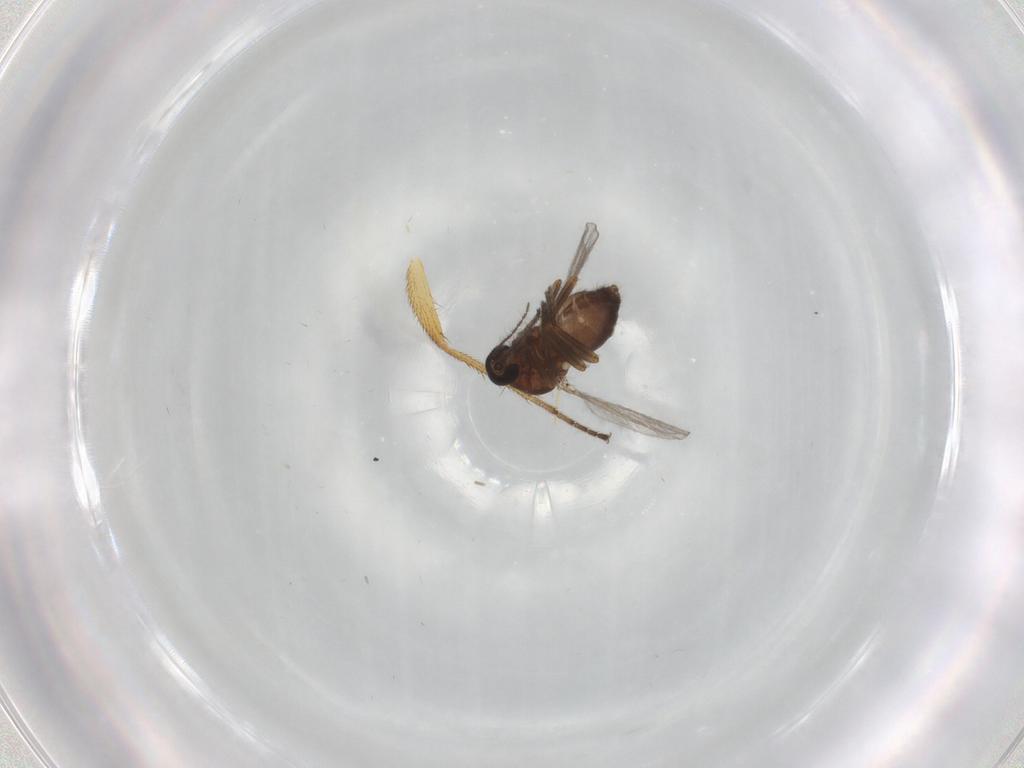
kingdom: Animalia
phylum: Arthropoda
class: Insecta
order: Diptera
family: Ceratopogonidae
